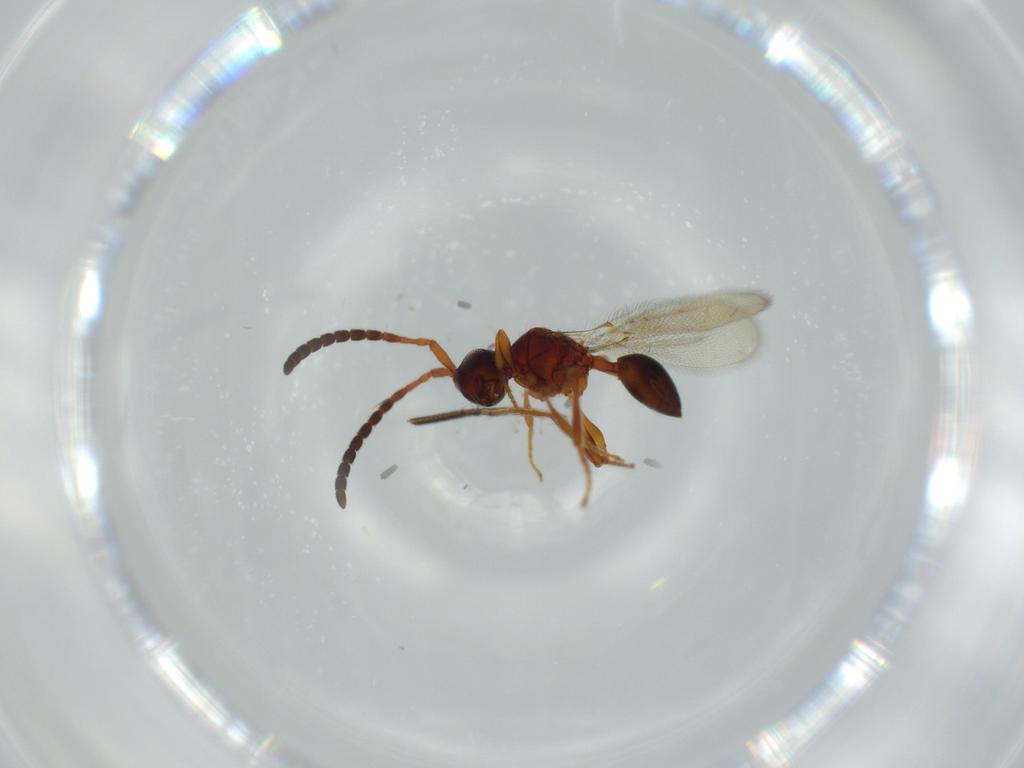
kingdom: Animalia
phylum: Arthropoda
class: Insecta
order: Hymenoptera
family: Diapriidae
